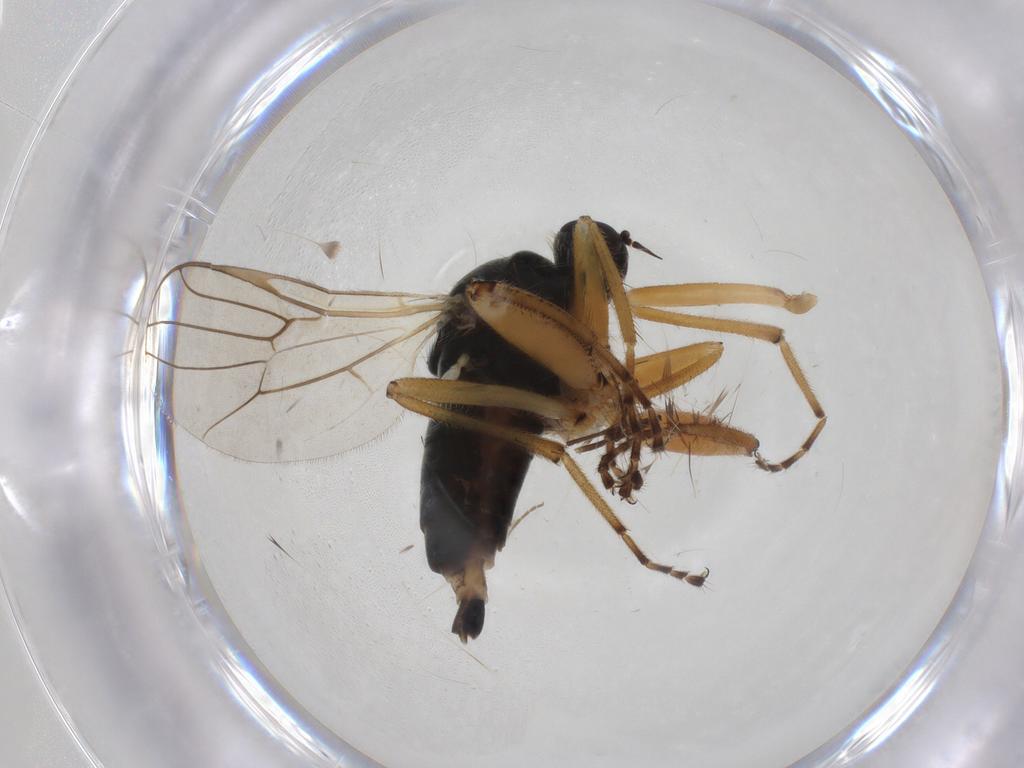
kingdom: Animalia
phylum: Arthropoda
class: Insecta
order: Diptera
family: Hybotidae
